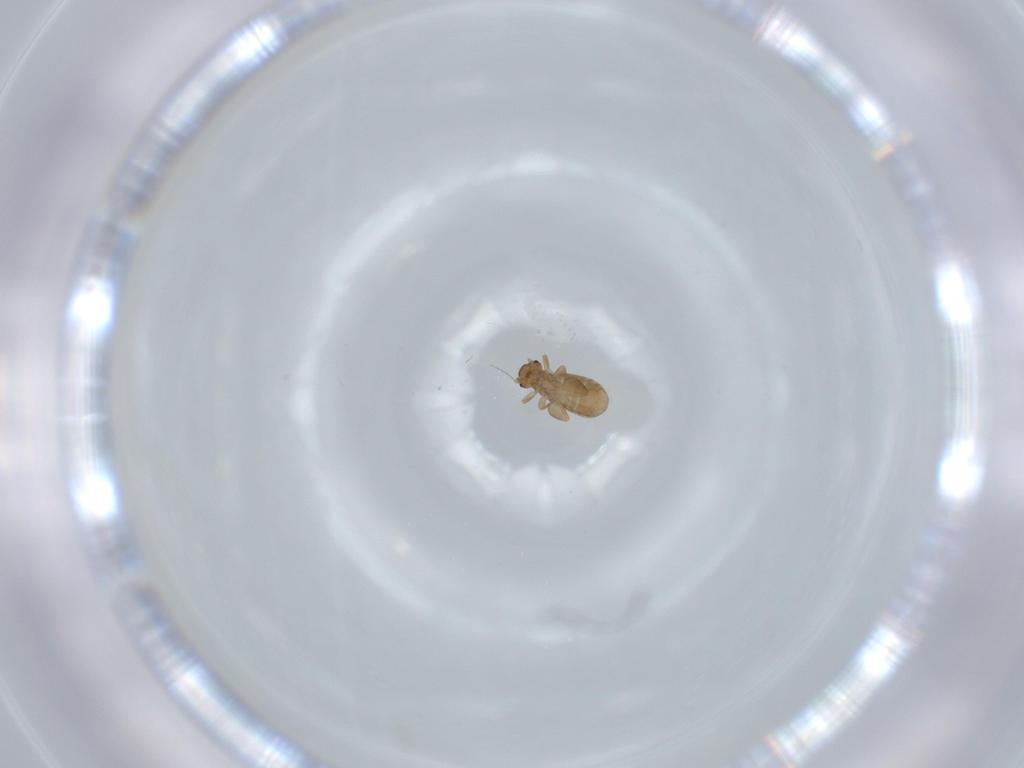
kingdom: Animalia
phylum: Arthropoda
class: Insecta
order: Psocodea
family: Liposcelididae
